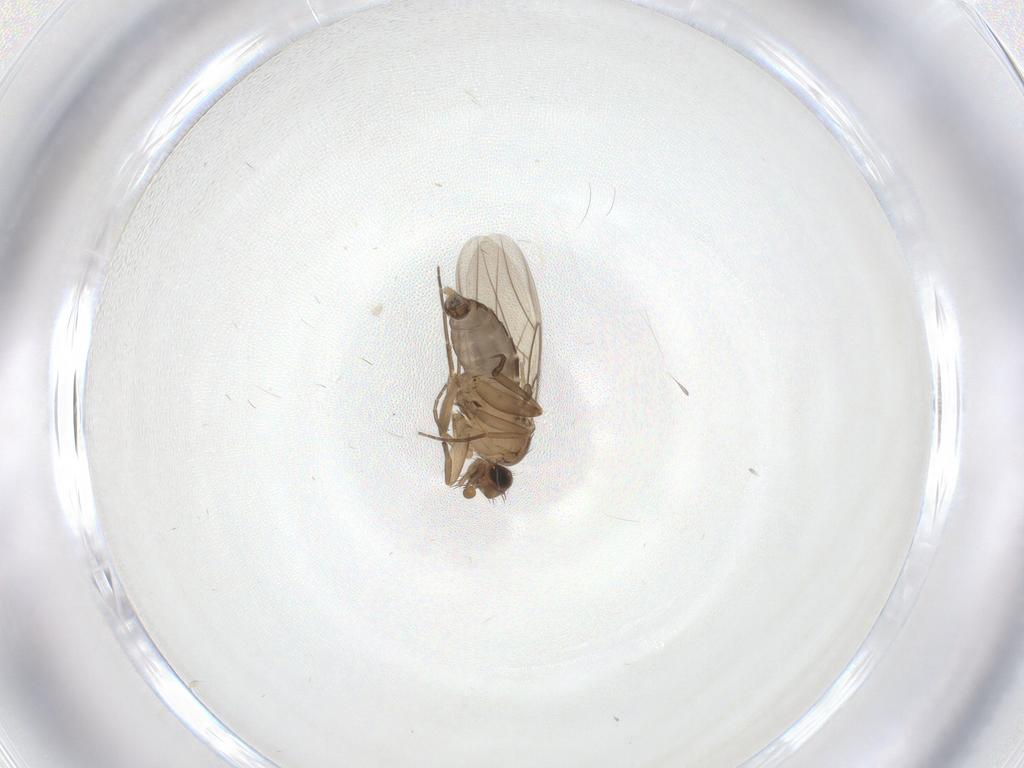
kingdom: Animalia
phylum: Arthropoda
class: Insecta
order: Diptera
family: Phoridae
